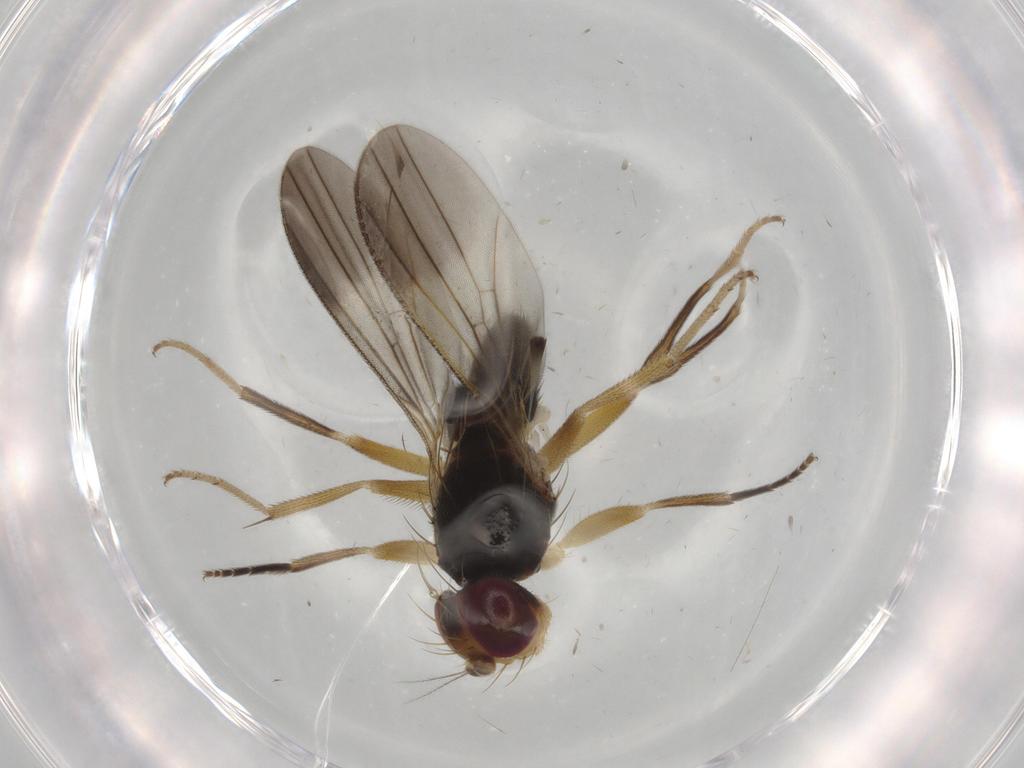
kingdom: Animalia
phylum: Arthropoda
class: Insecta
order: Diptera
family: Clusiidae
